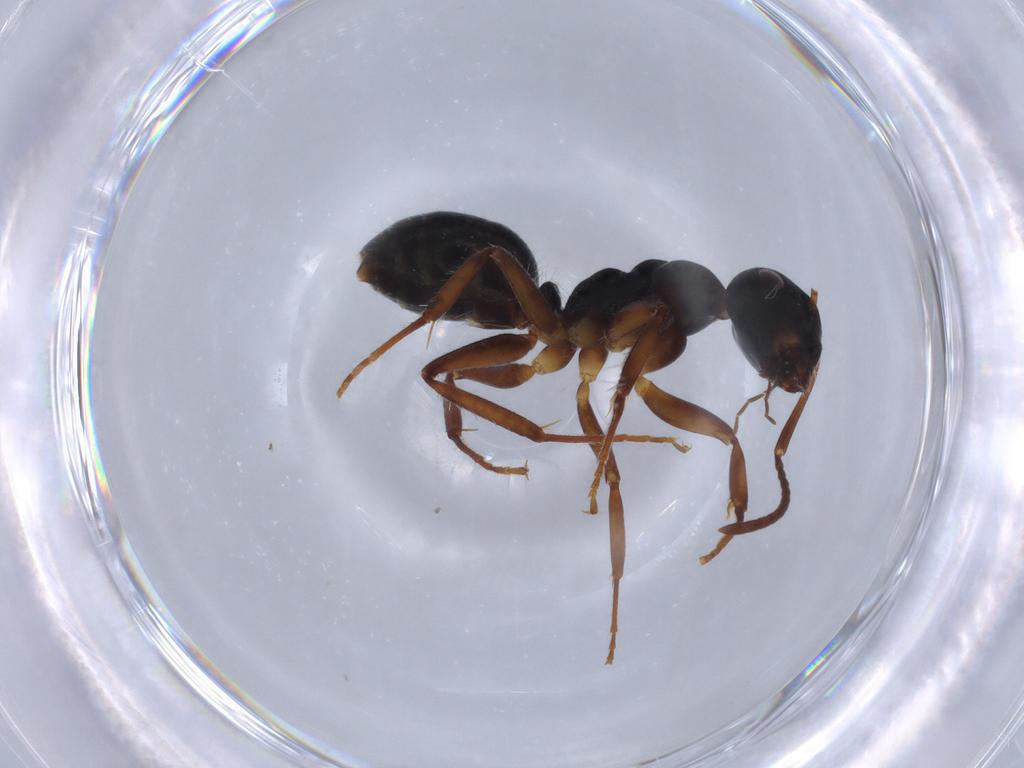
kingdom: Animalia
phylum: Arthropoda
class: Insecta
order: Hymenoptera
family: Formicidae
